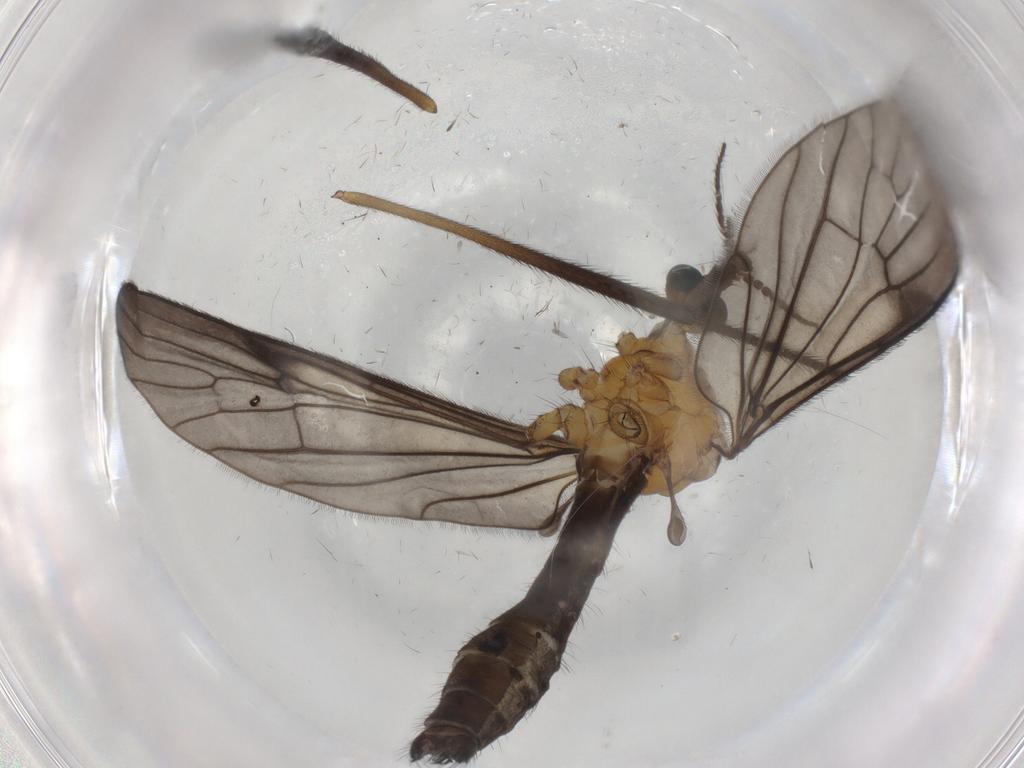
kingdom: Animalia
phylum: Arthropoda
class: Insecta
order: Diptera
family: Limoniidae
